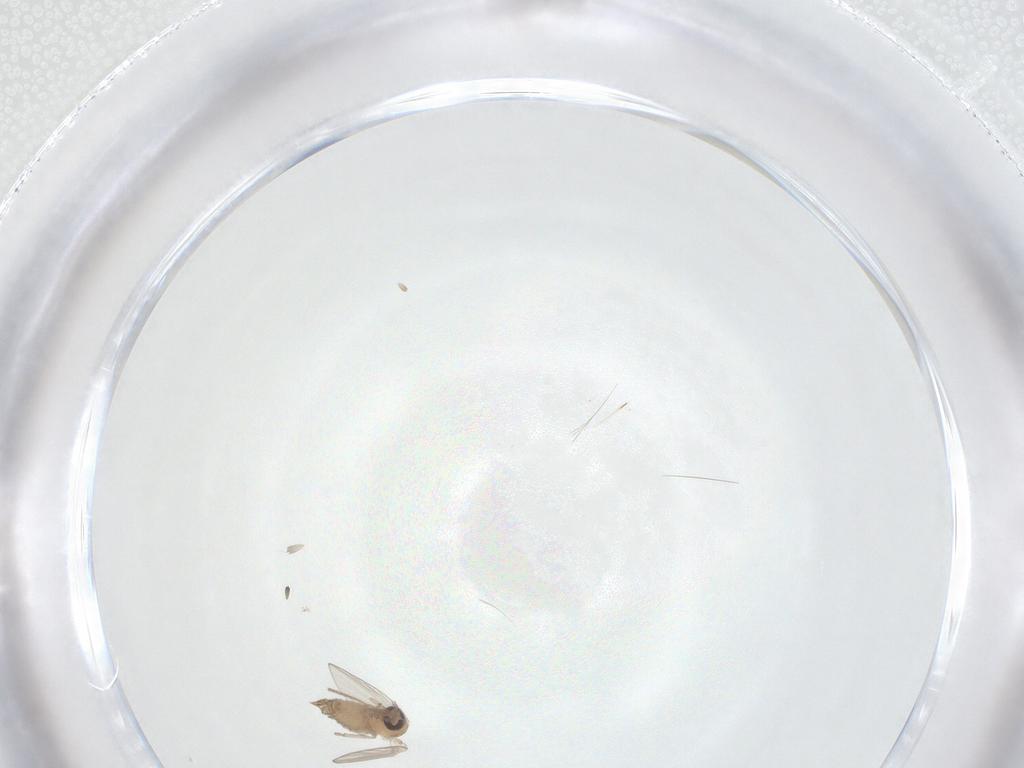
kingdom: Animalia
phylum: Arthropoda
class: Insecta
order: Diptera
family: Psychodidae
